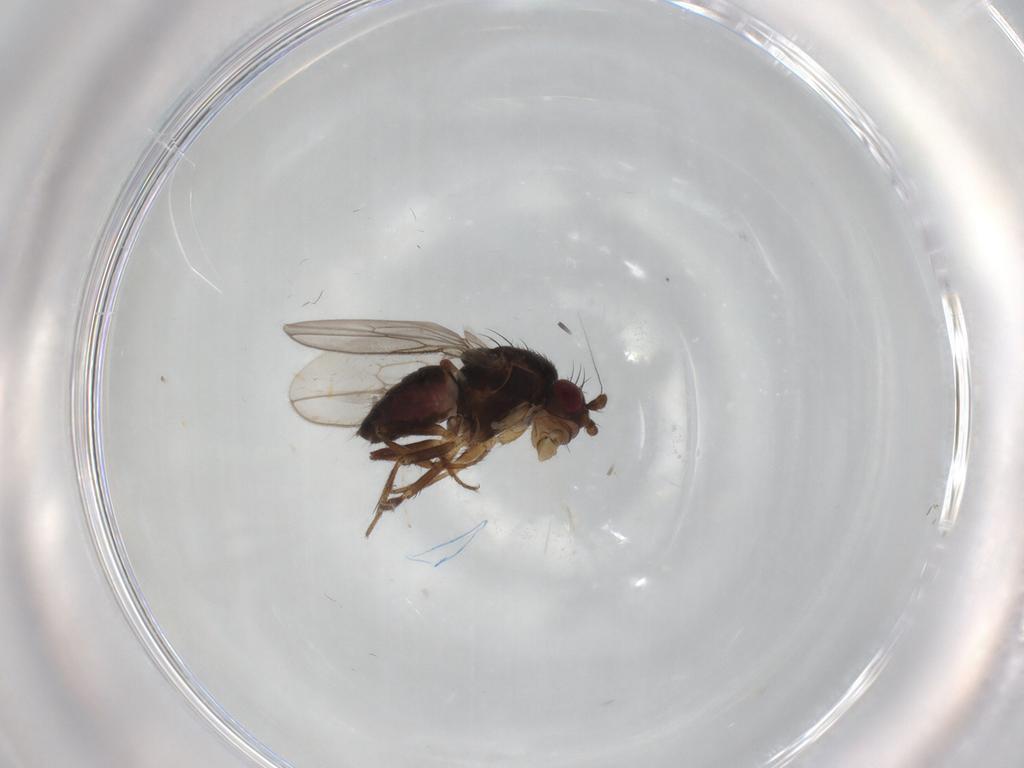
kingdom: Animalia
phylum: Arthropoda
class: Insecta
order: Diptera
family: Sphaeroceridae
